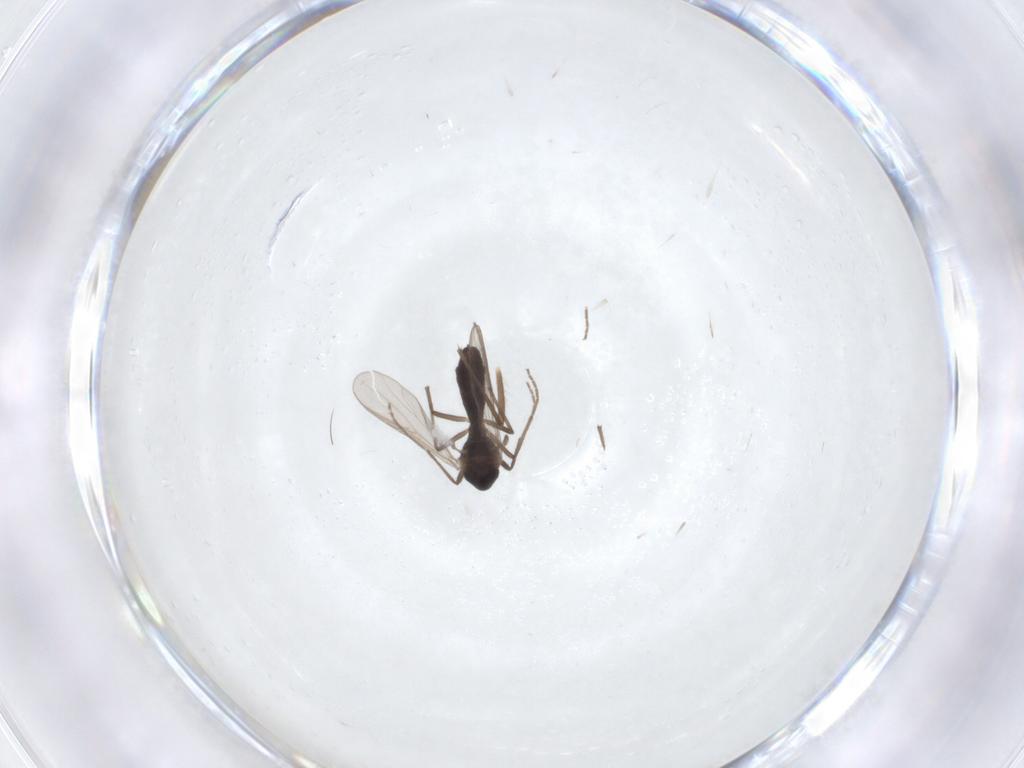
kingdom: Animalia
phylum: Arthropoda
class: Insecta
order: Diptera
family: Chironomidae
